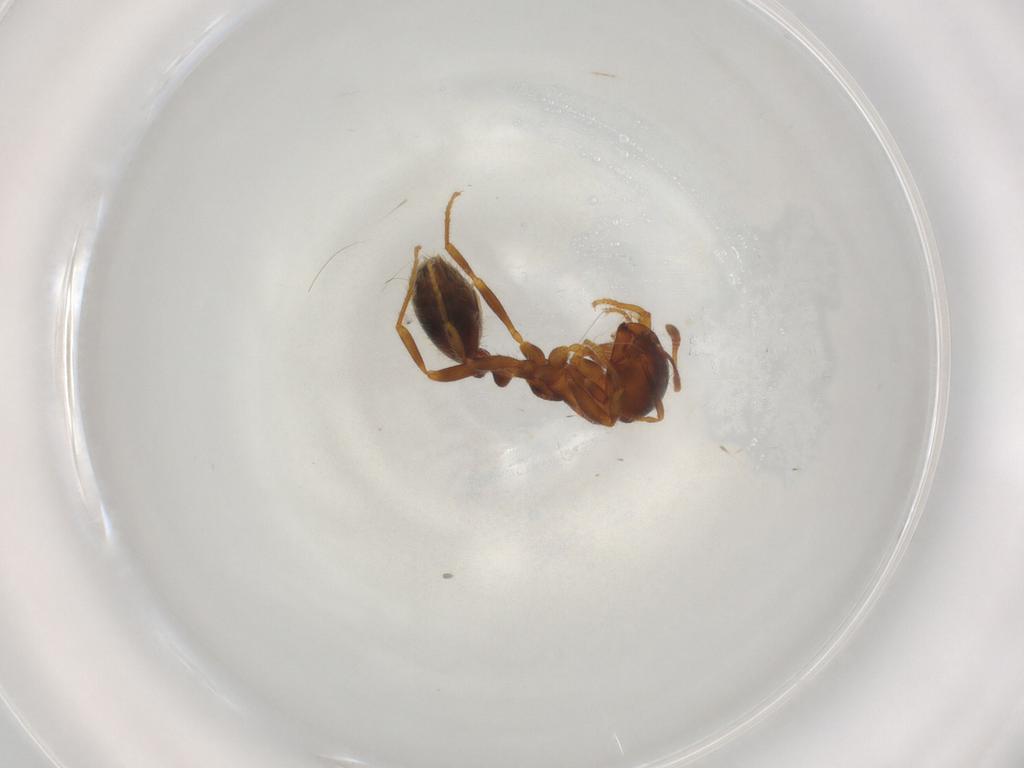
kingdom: Animalia
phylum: Arthropoda
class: Insecta
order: Hymenoptera
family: Formicidae
